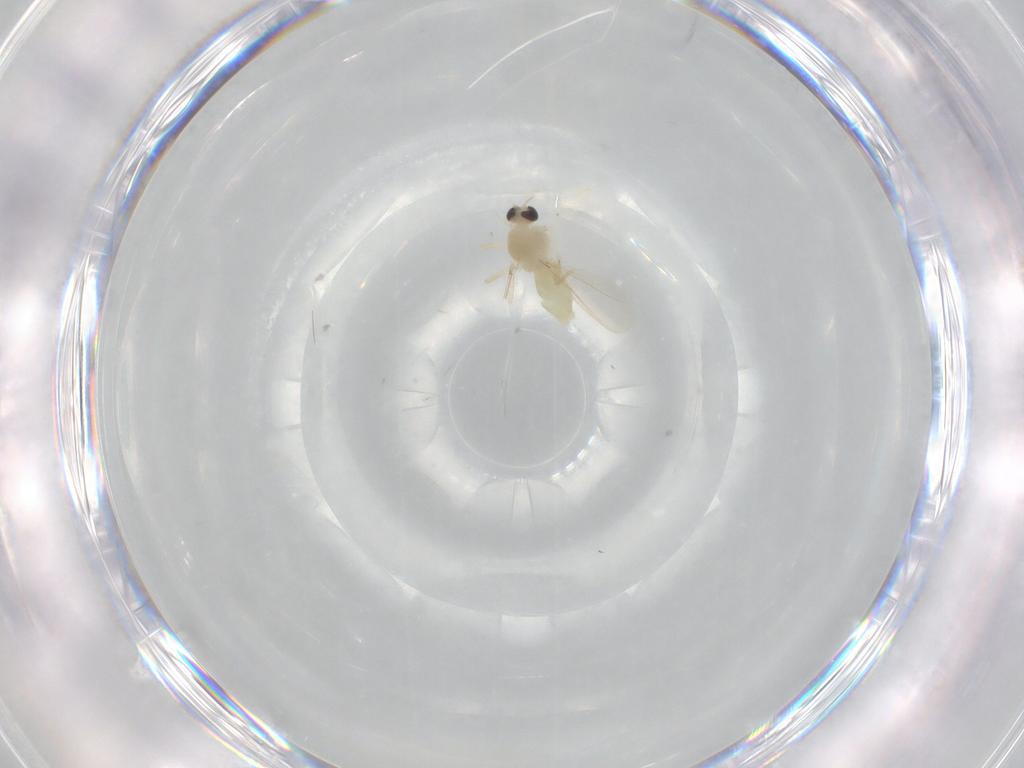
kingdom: Animalia
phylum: Arthropoda
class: Insecta
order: Diptera
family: Chironomidae
